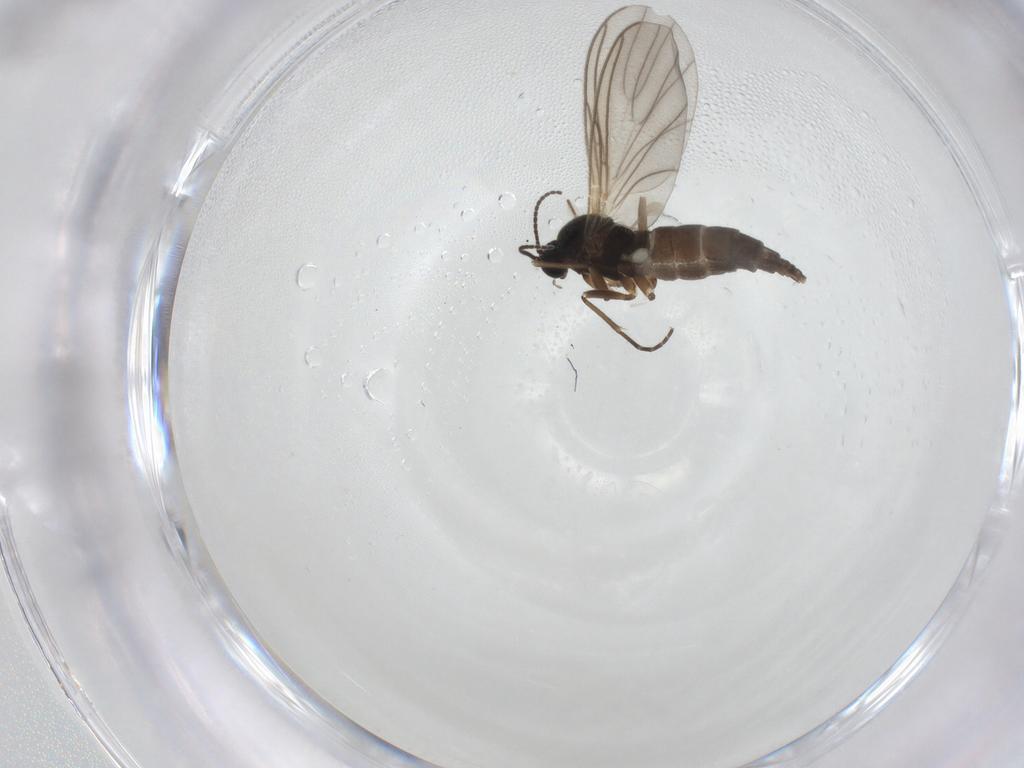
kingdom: Animalia
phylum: Arthropoda
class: Insecta
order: Diptera
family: Sciaridae
